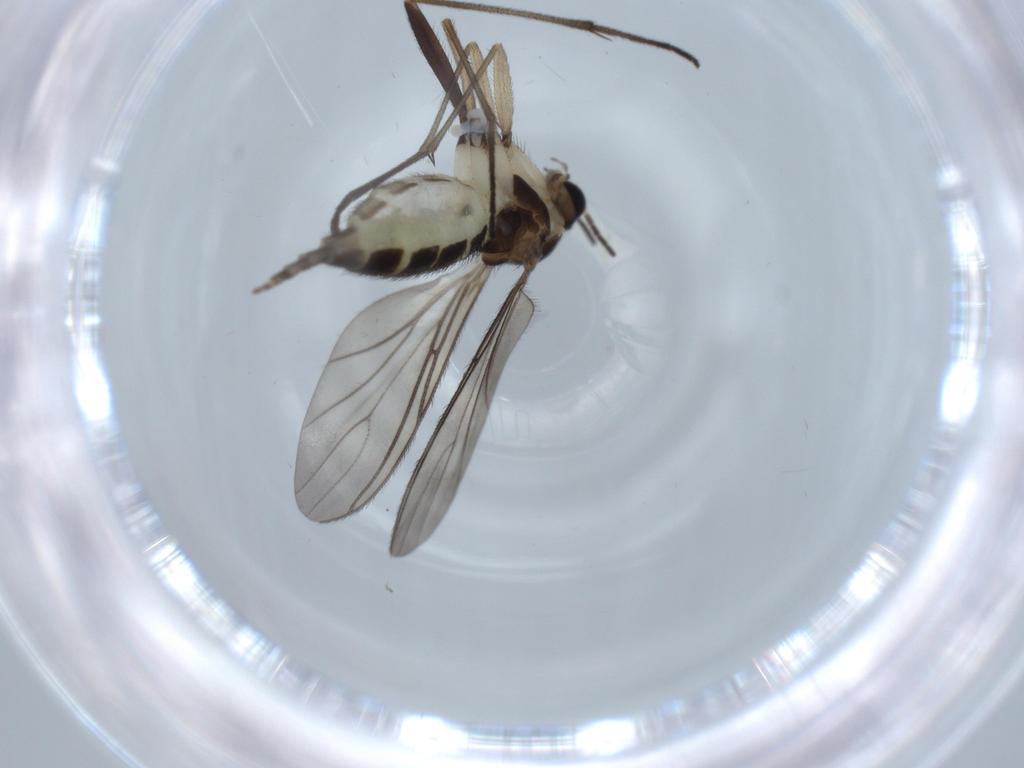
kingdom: Animalia
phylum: Arthropoda
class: Insecta
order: Diptera
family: Sciaridae
